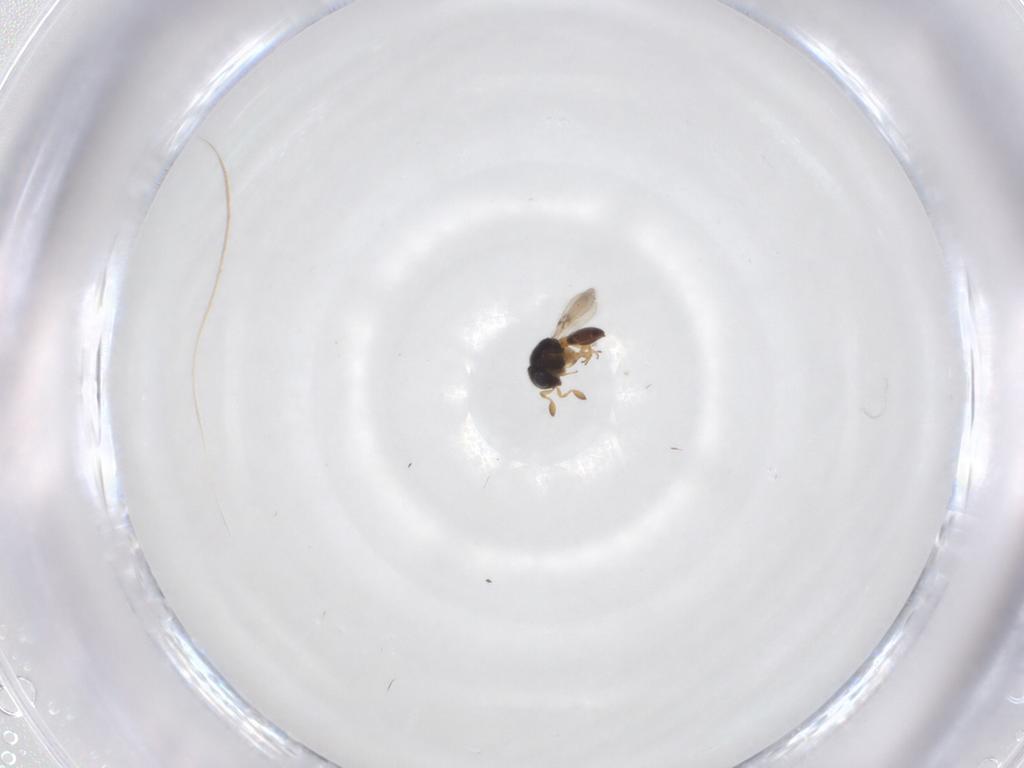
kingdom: Animalia
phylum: Arthropoda
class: Insecta
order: Hymenoptera
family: Scelionidae
